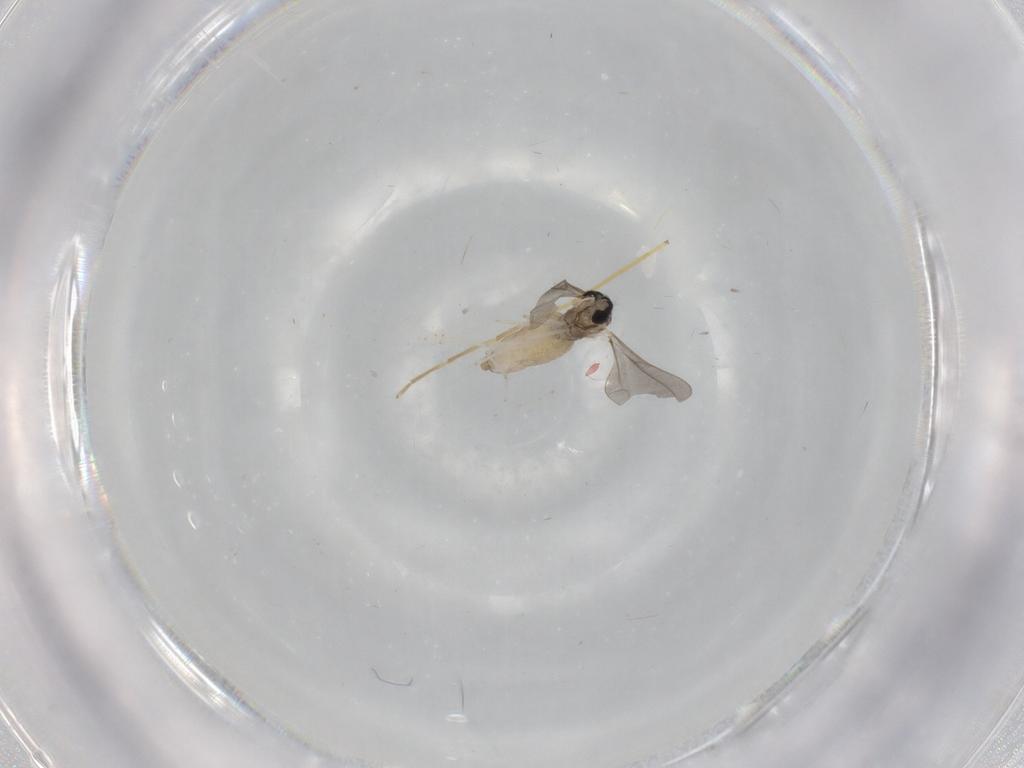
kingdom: Animalia
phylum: Arthropoda
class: Insecta
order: Diptera
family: Cecidomyiidae
